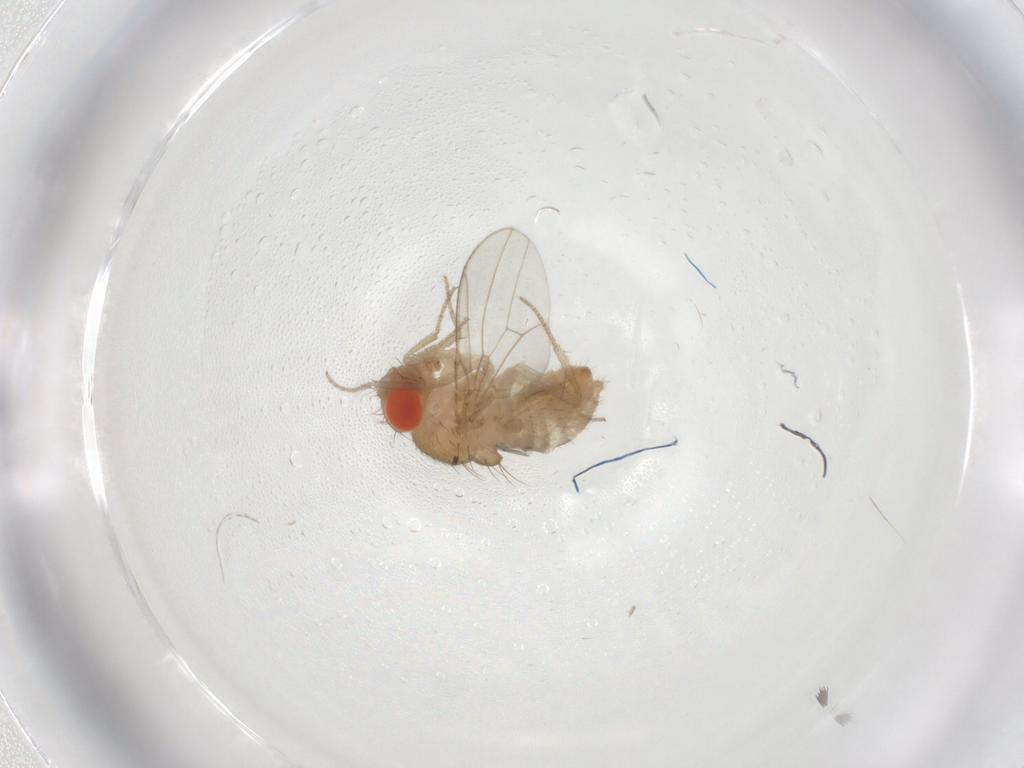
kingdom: Animalia
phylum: Arthropoda
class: Insecta
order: Diptera
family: Drosophilidae
